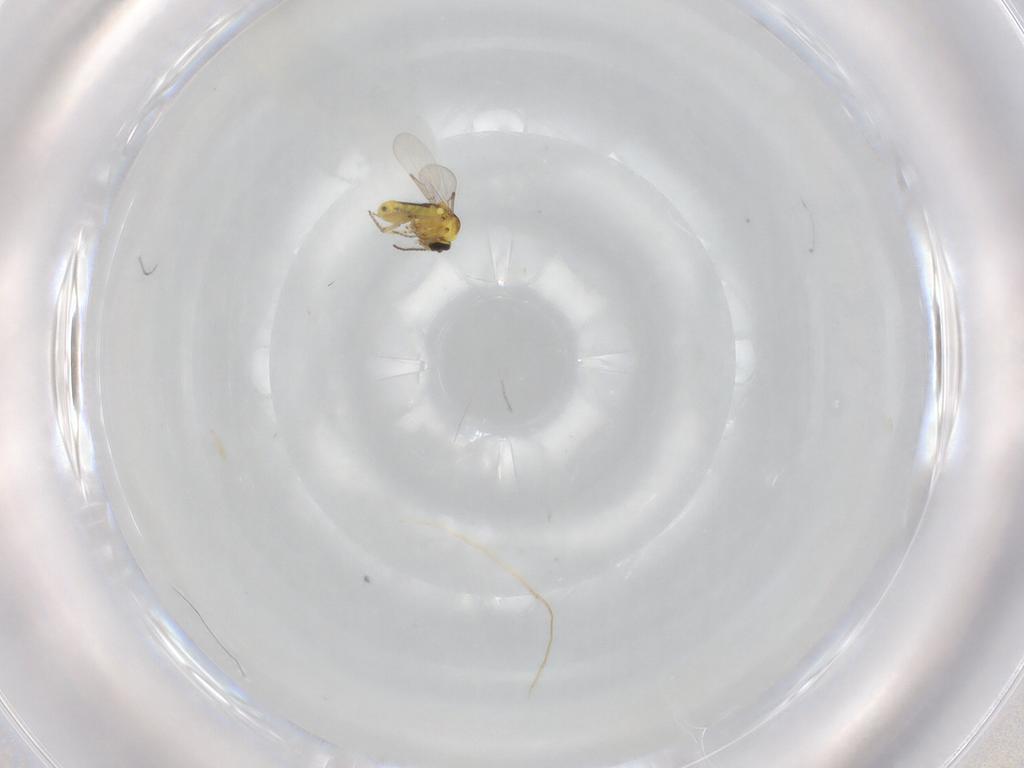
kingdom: Animalia
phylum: Arthropoda
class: Insecta
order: Diptera
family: Ceratopogonidae
